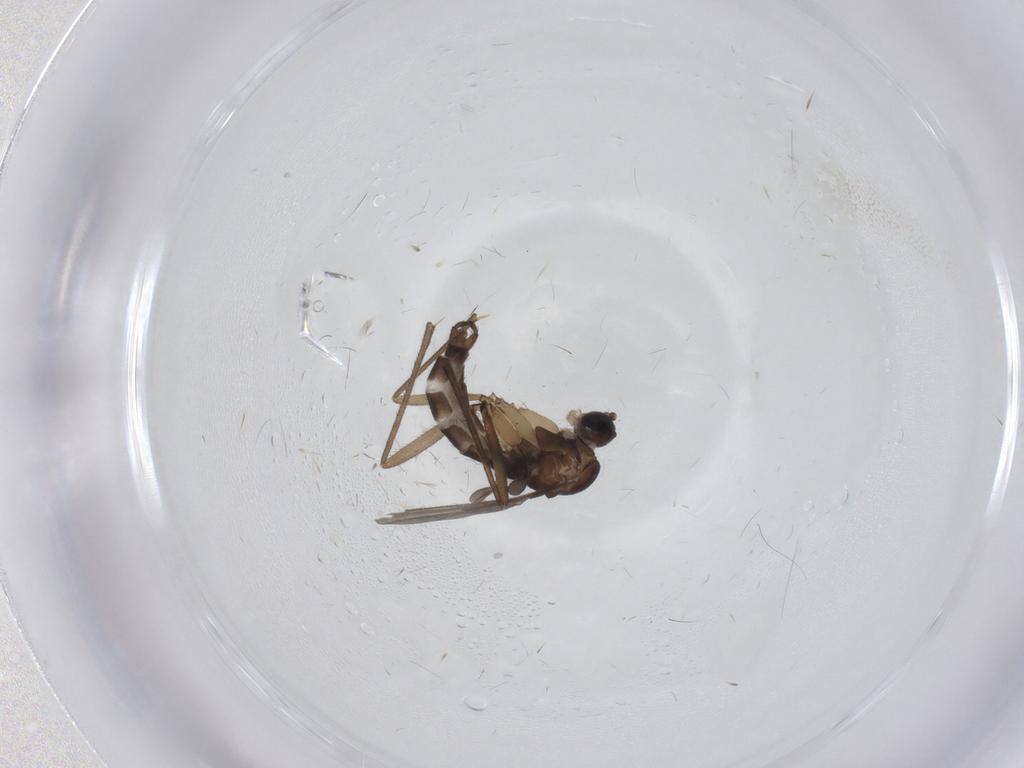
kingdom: Animalia
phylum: Arthropoda
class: Insecta
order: Diptera
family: Sciaridae
